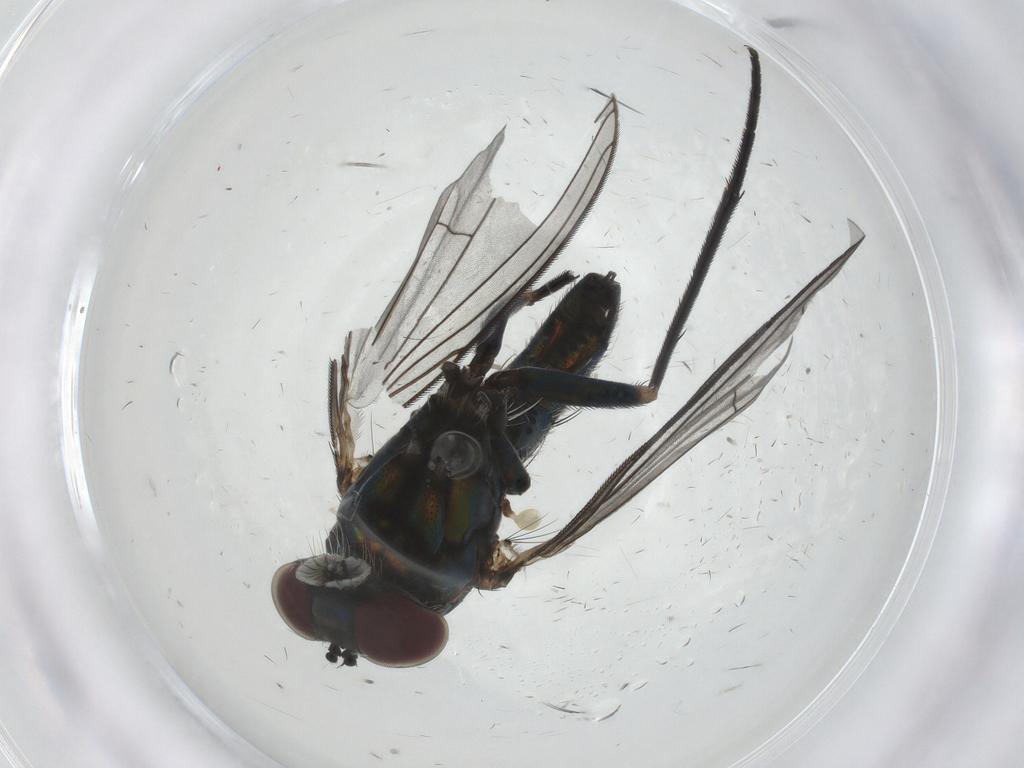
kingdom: Animalia
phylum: Arthropoda
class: Insecta
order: Diptera
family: Dolichopodidae
